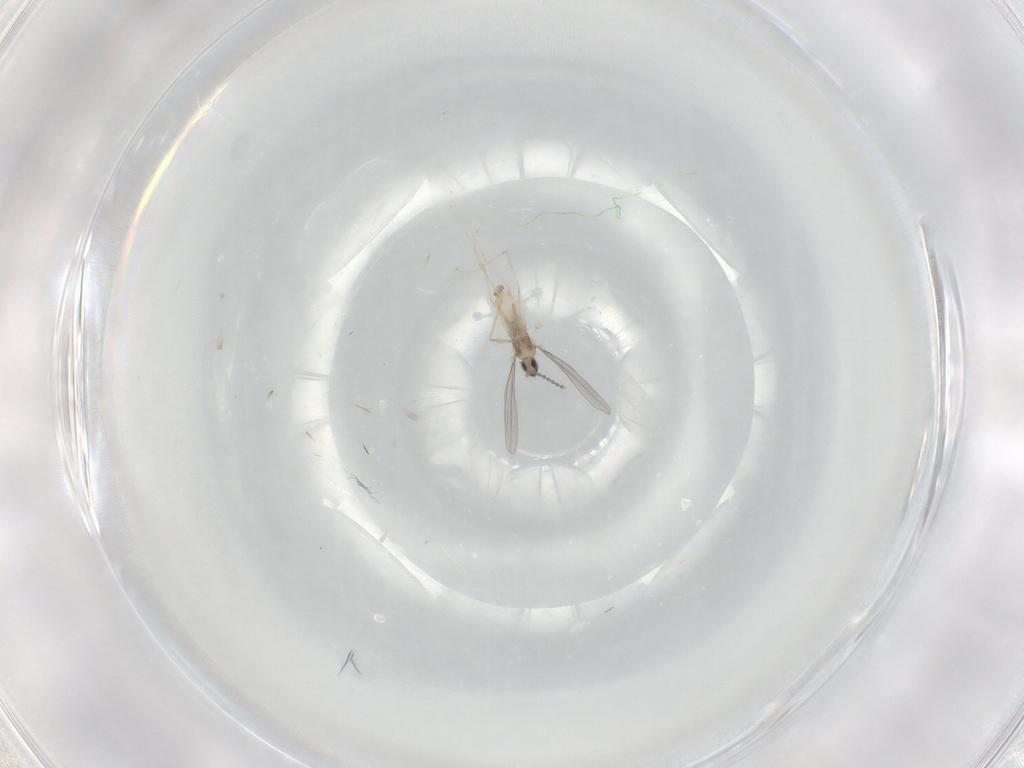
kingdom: Animalia
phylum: Arthropoda
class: Insecta
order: Diptera
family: Cecidomyiidae
